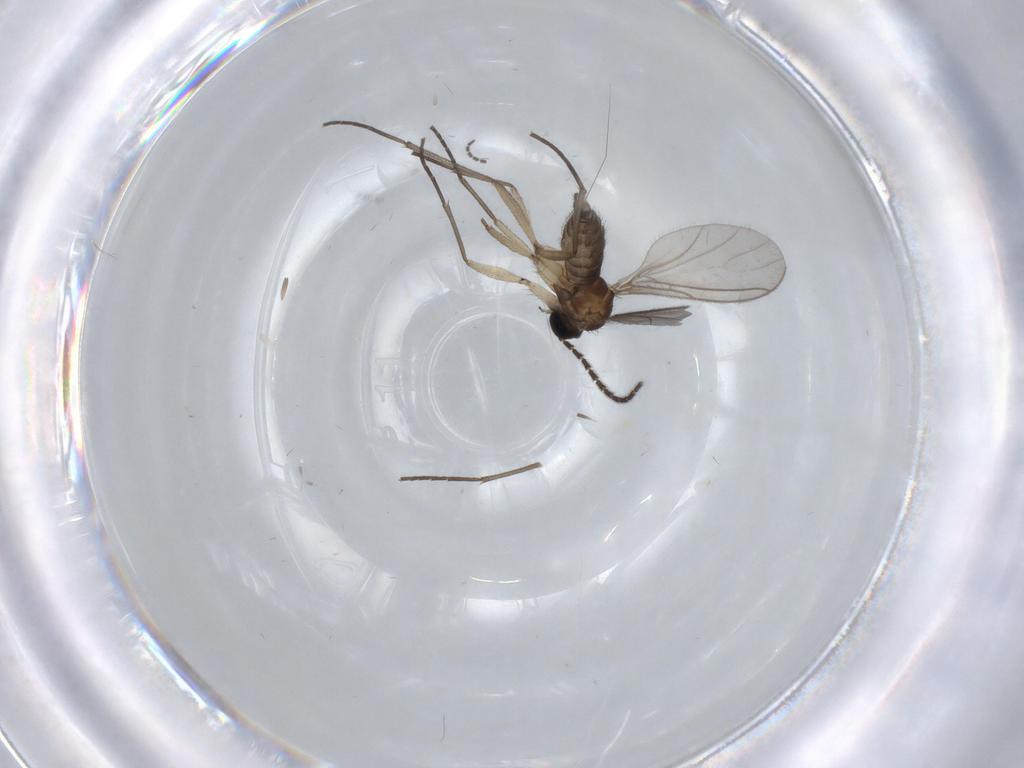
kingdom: Animalia
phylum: Arthropoda
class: Insecta
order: Diptera
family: Sciaridae
